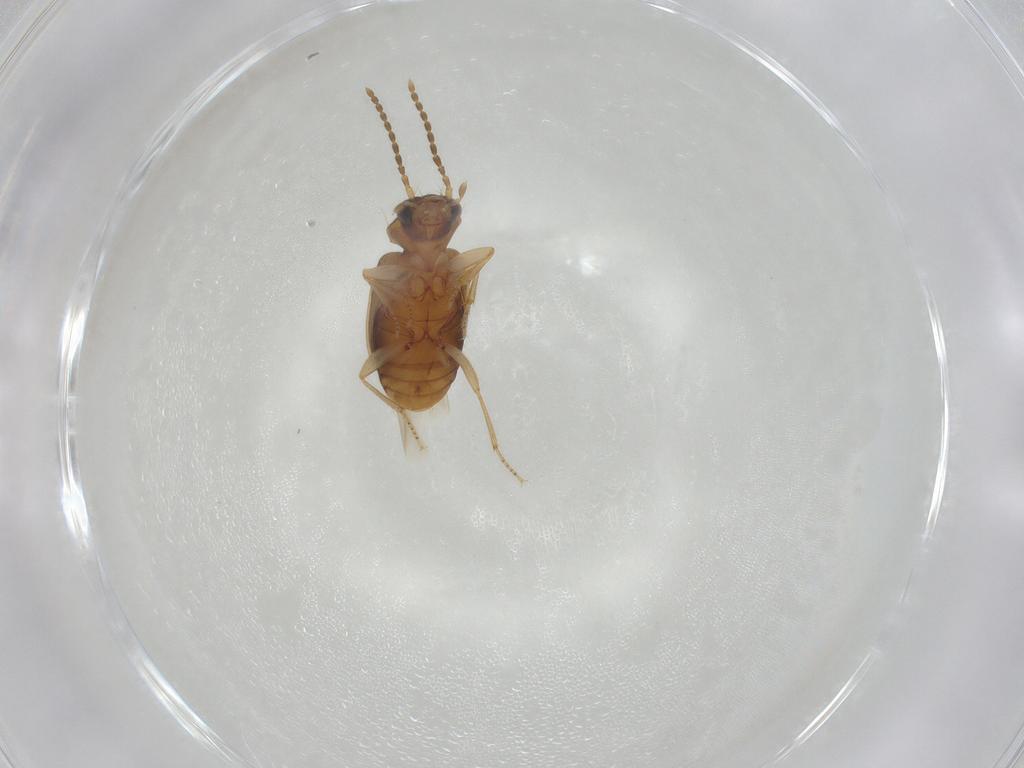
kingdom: Animalia
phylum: Arthropoda
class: Insecta
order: Coleoptera
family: Carabidae
